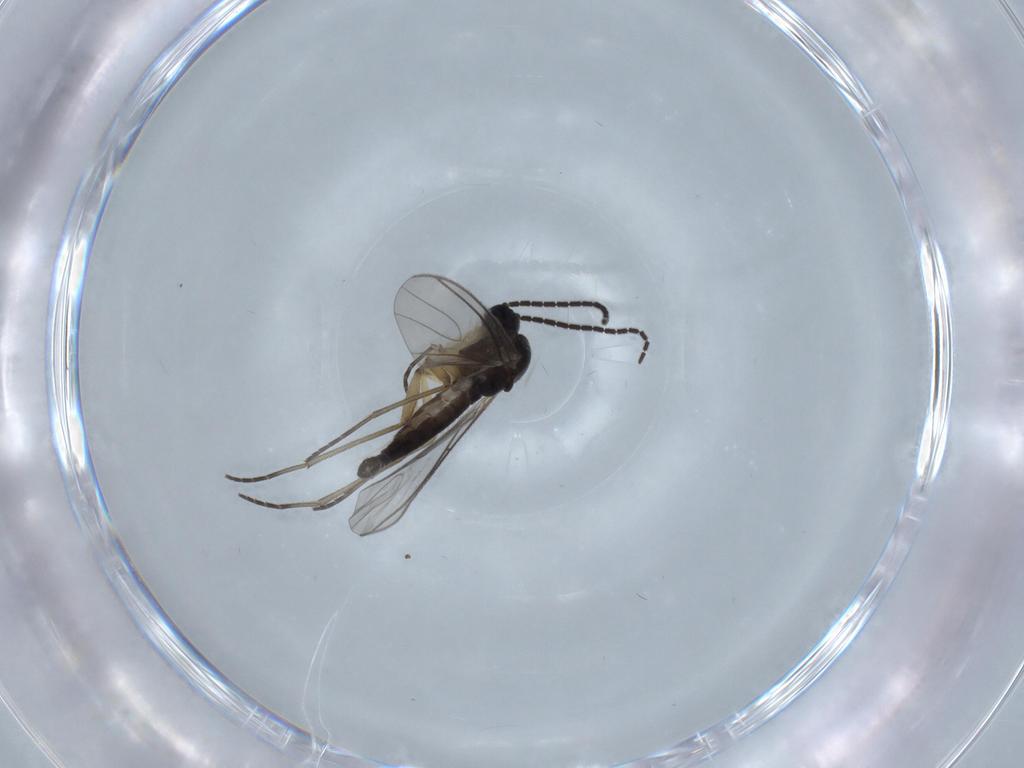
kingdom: Animalia
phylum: Arthropoda
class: Insecta
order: Diptera
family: Sciaridae
